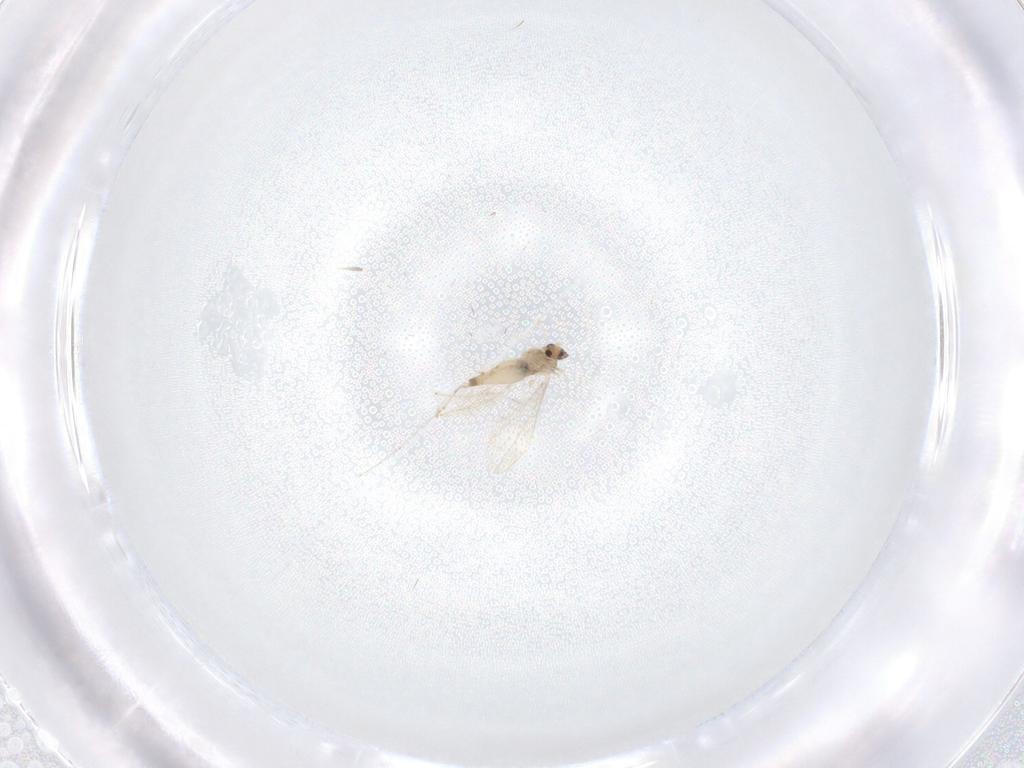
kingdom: Animalia
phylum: Arthropoda
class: Insecta
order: Diptera
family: Cecidomyiidae
